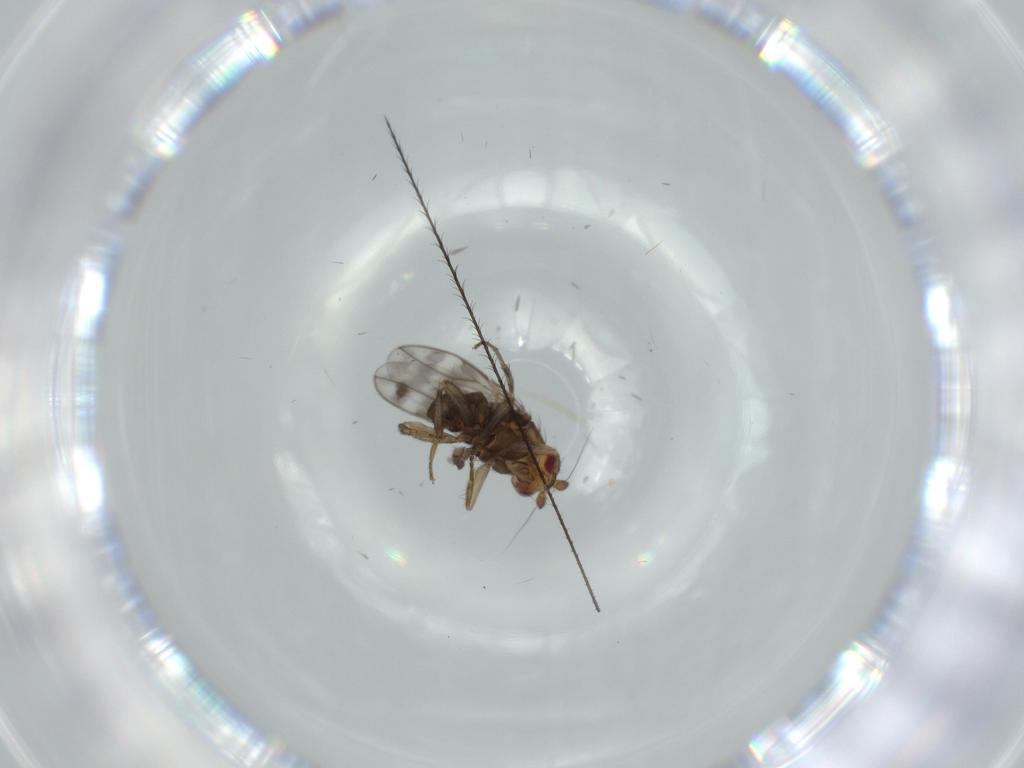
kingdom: Animalia
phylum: Arthropoda
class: Insecta
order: Diptera
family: Sphaeroceridae
